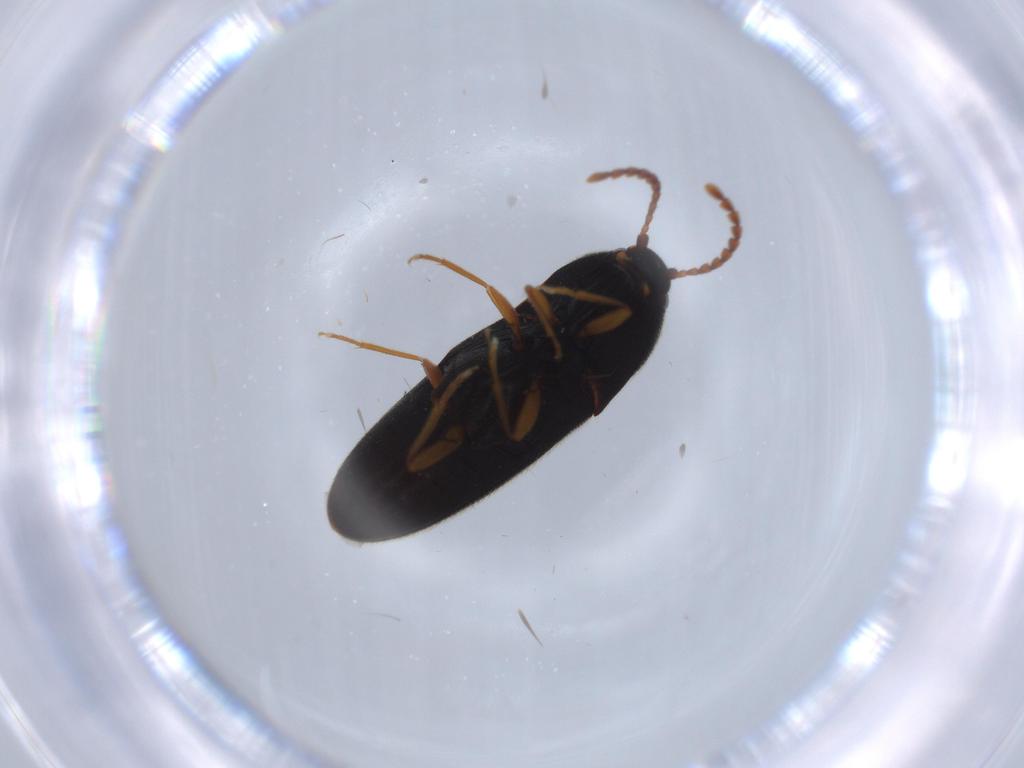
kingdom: Animalia
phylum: Arthropoda
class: Insecta
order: Coleoptera
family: Elateridae
